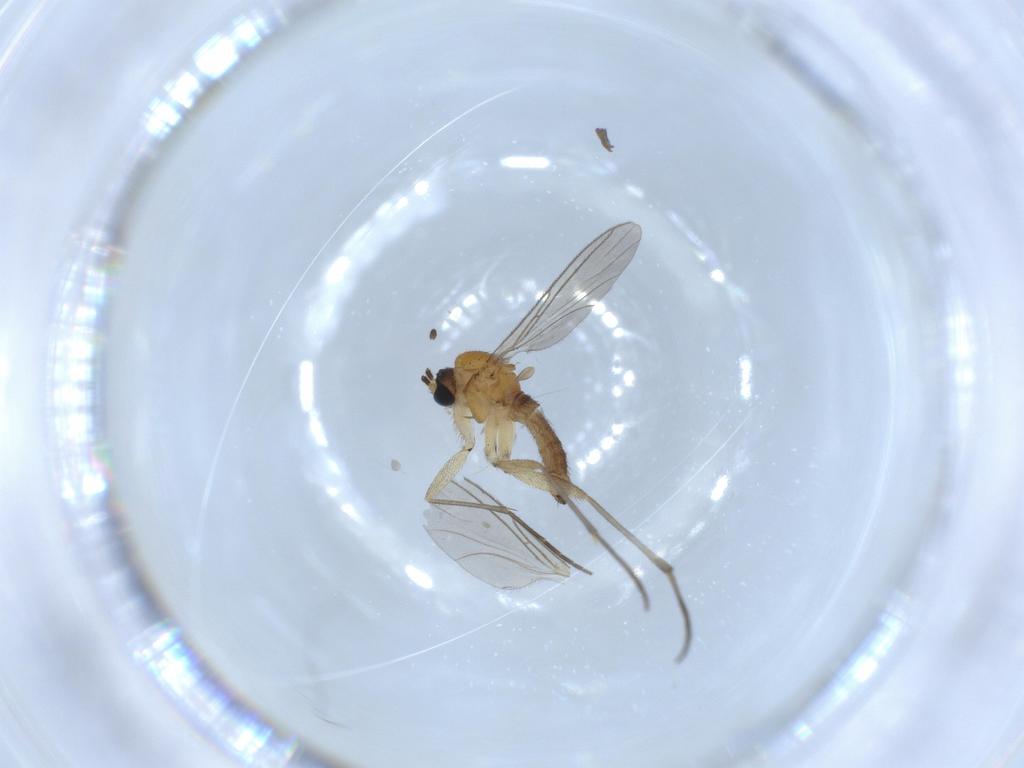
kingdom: Animalia
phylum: Arthropoda
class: Insecta
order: Diptera
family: Sciaridae
